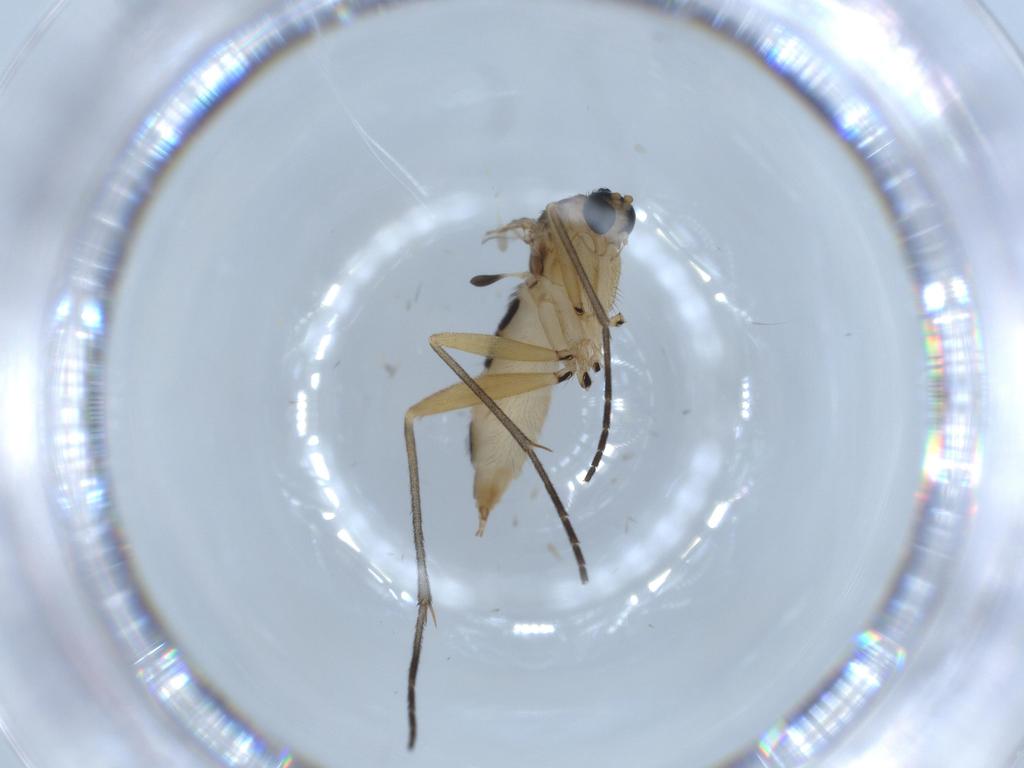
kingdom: Animalia
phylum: Arthropoda
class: Insecta
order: Diptera
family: Sciaridae
